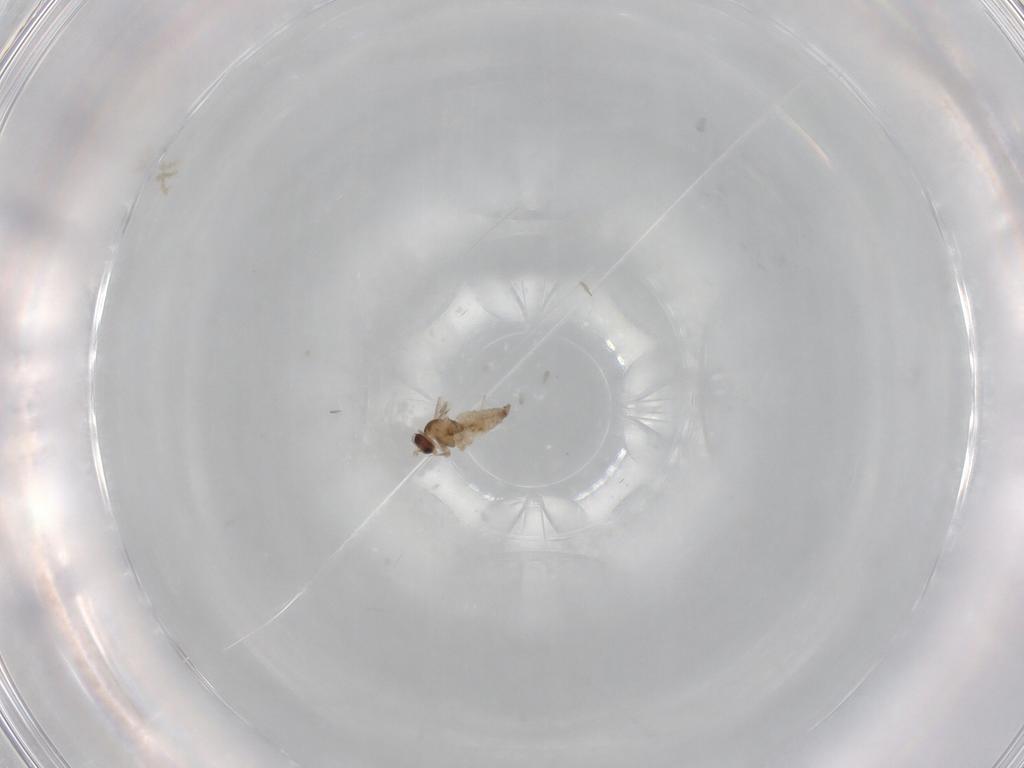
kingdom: Animalia
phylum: Arthropoda
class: Insecta
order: Diptera
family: Cecidomyiidae
